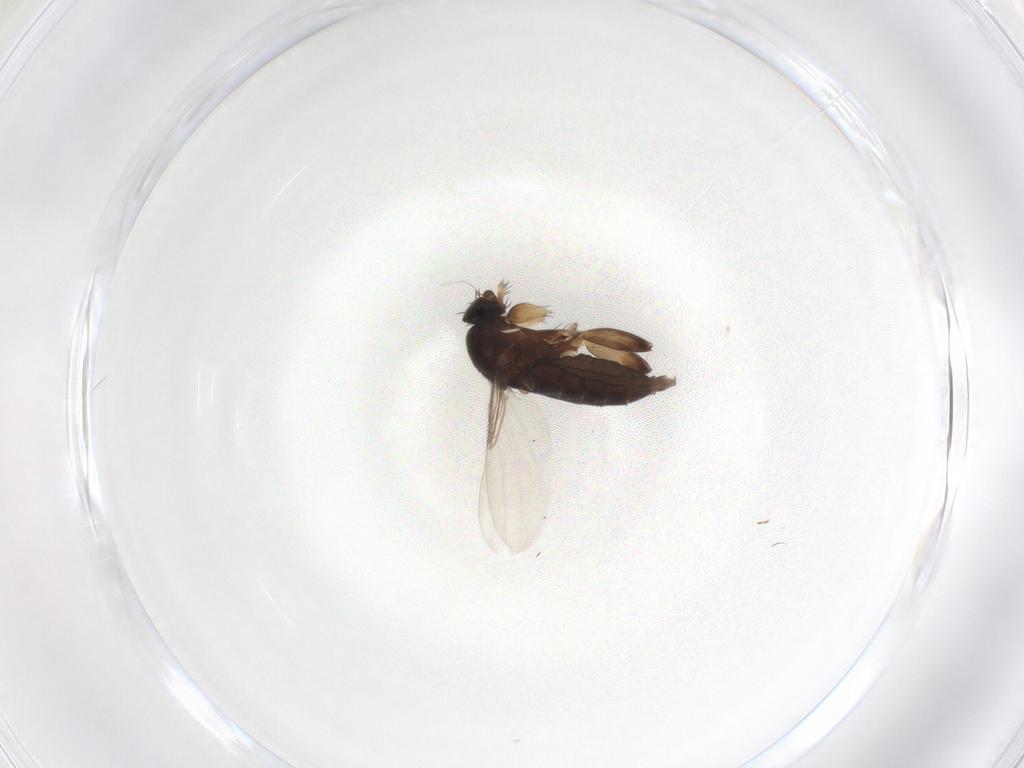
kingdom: Animalia
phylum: Arthropoda
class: Insecta
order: Diptera
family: Phoridae
